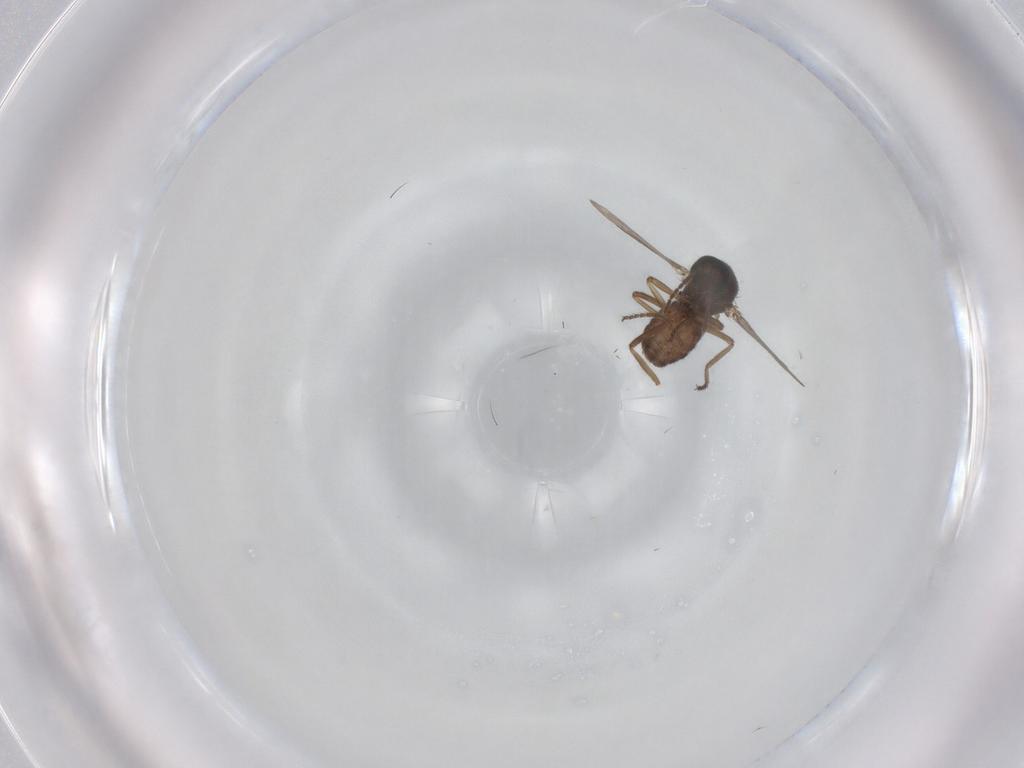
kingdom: Animalia
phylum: Arthropoda
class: Insecta
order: Diptera
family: Ceratopogonidae
